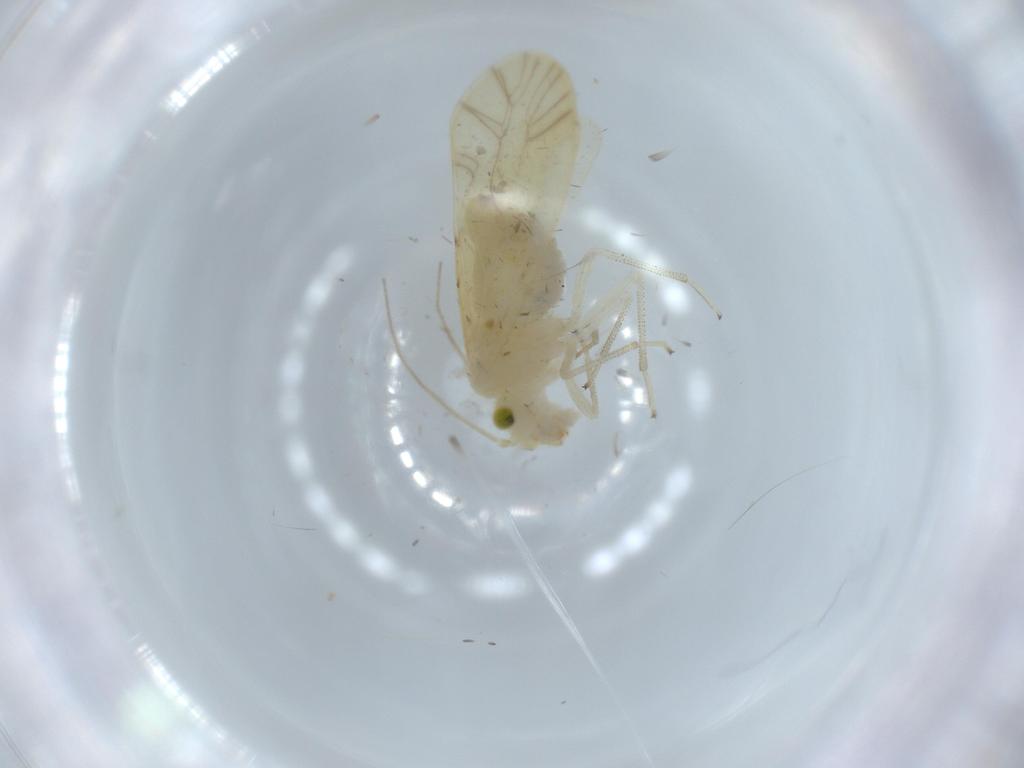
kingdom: Animalia
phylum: Arthropoda
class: Insecta
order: Psocodea
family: Caeciliusidae
